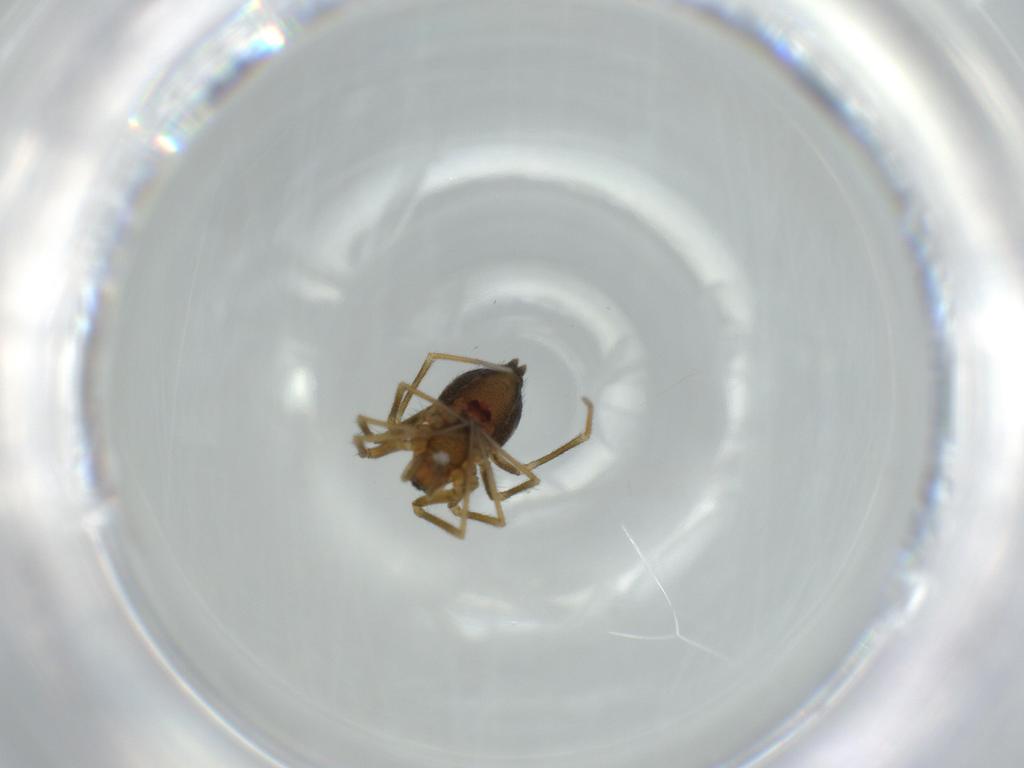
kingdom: Animalia
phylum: Arthropoda
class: Arachnida
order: Araneae
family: Linyphiidae
